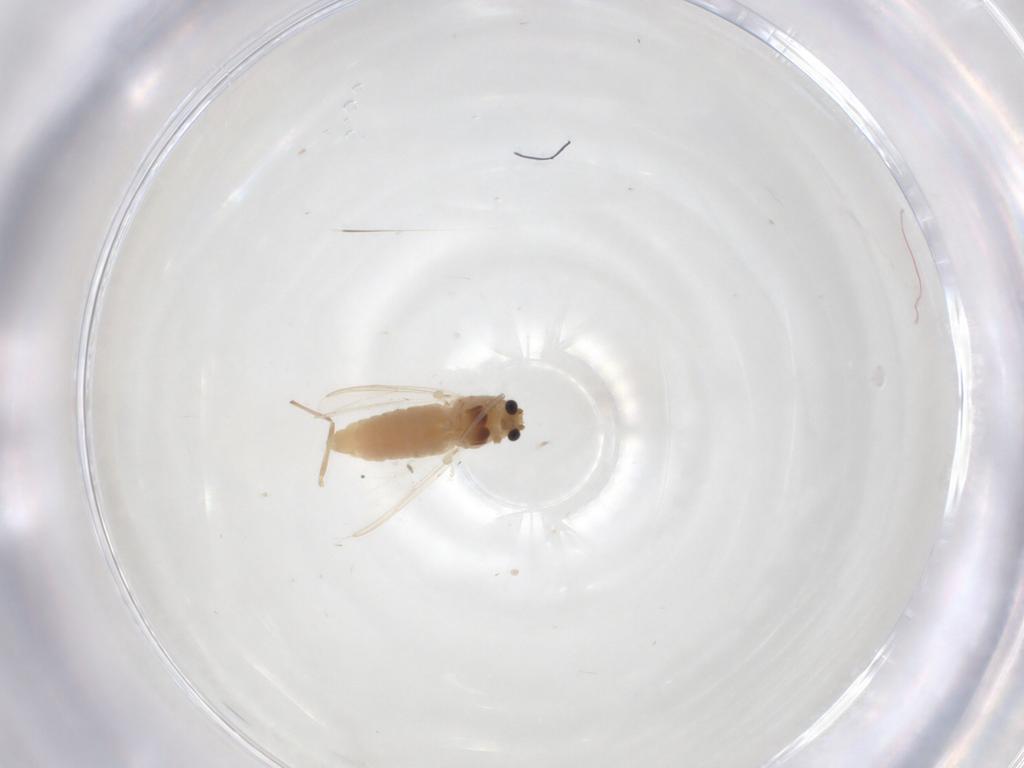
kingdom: Animalia
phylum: Arthropoda
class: Insecta
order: Diptera
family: Chironomidae
